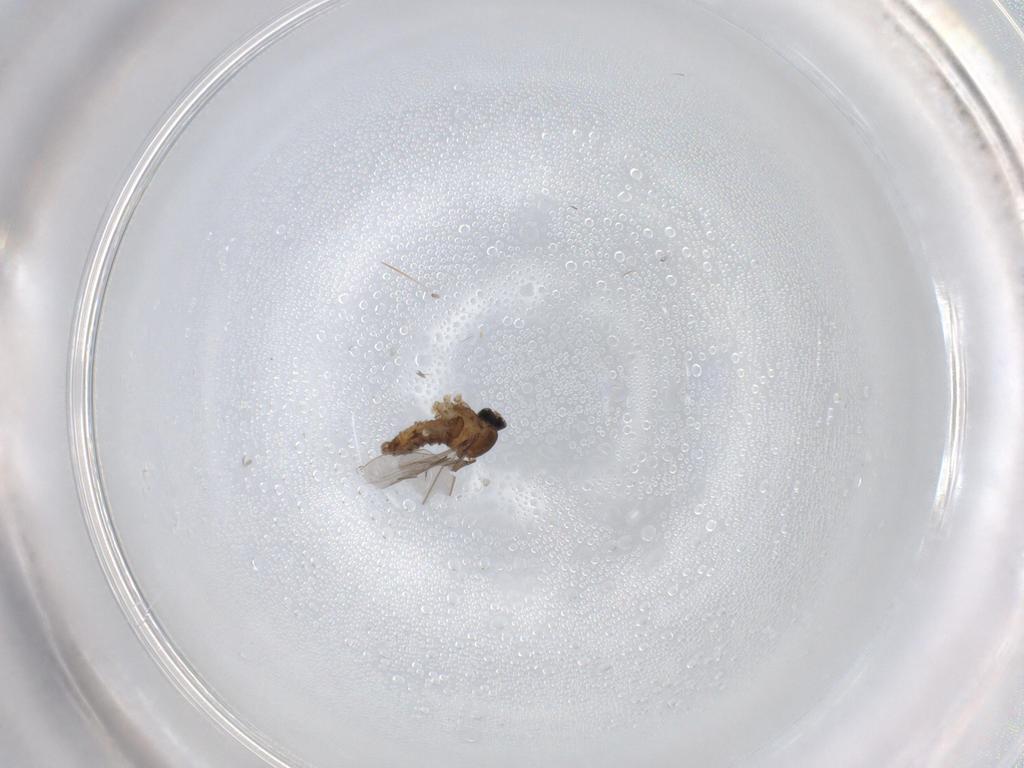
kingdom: Animalia
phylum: Arthropoda
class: Insecta
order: Diptera
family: Cecidomyiidae
